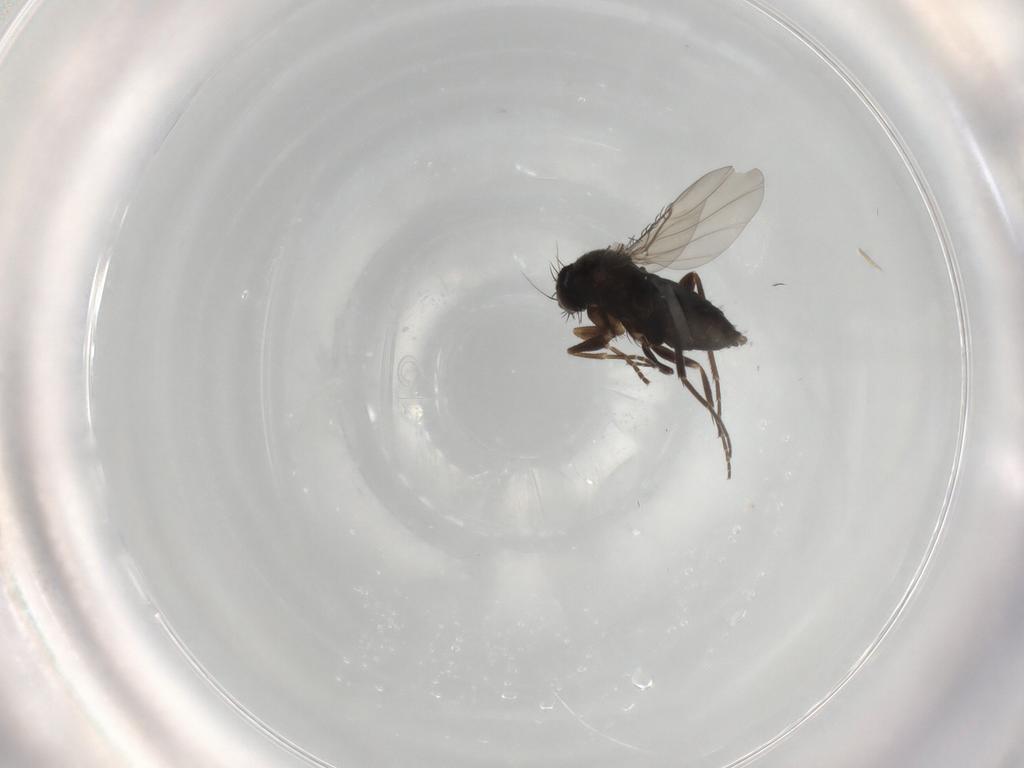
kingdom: Animalia
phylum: Arthropoda
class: Insecta
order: Diptera
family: Phoridae
